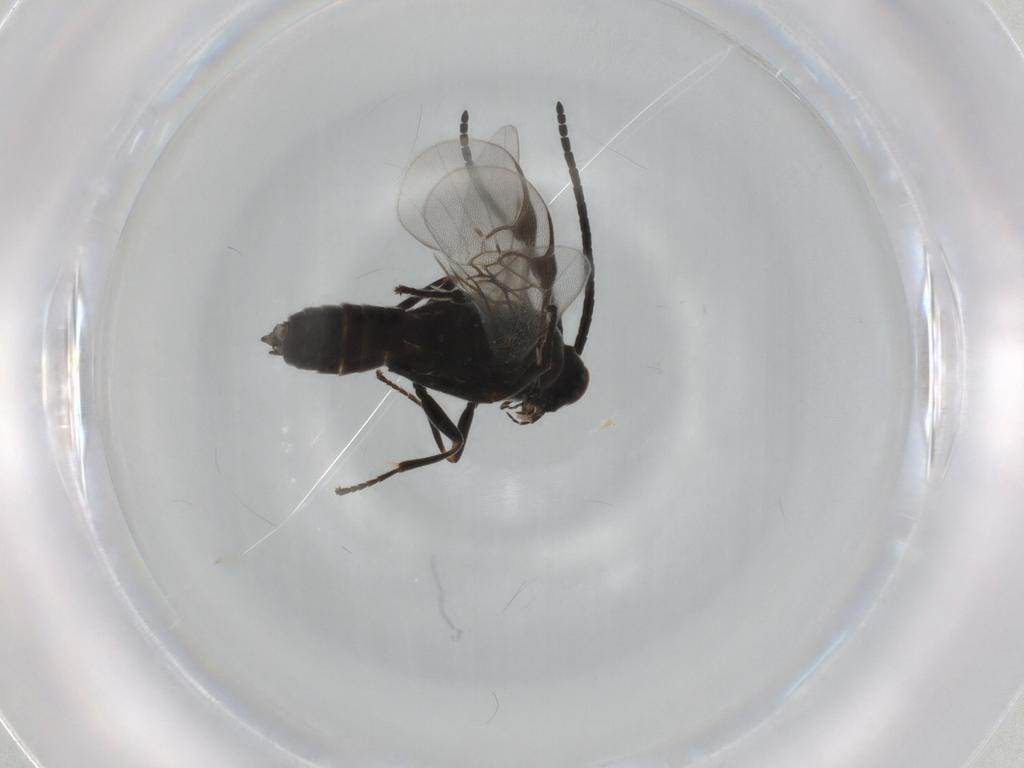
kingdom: Animalia
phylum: Arthropoda
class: Insecta
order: Hymenoptera
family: Braconidae
